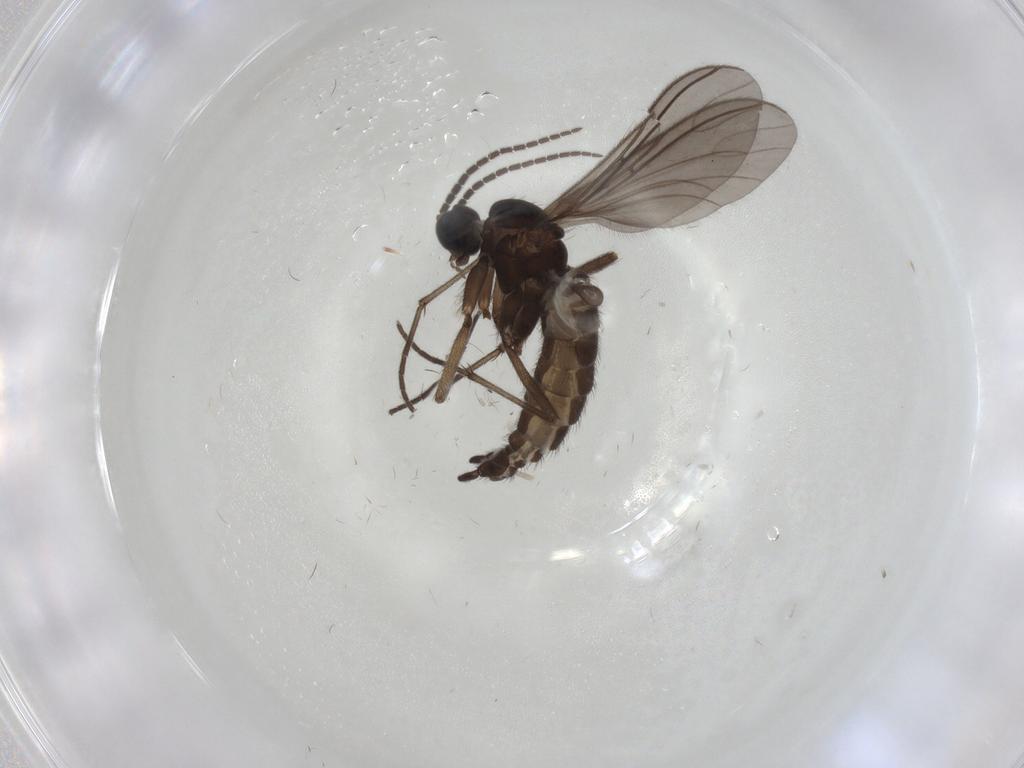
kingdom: Animalia
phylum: Arthropoda
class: Insecta
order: Diptera
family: Sciaridae
